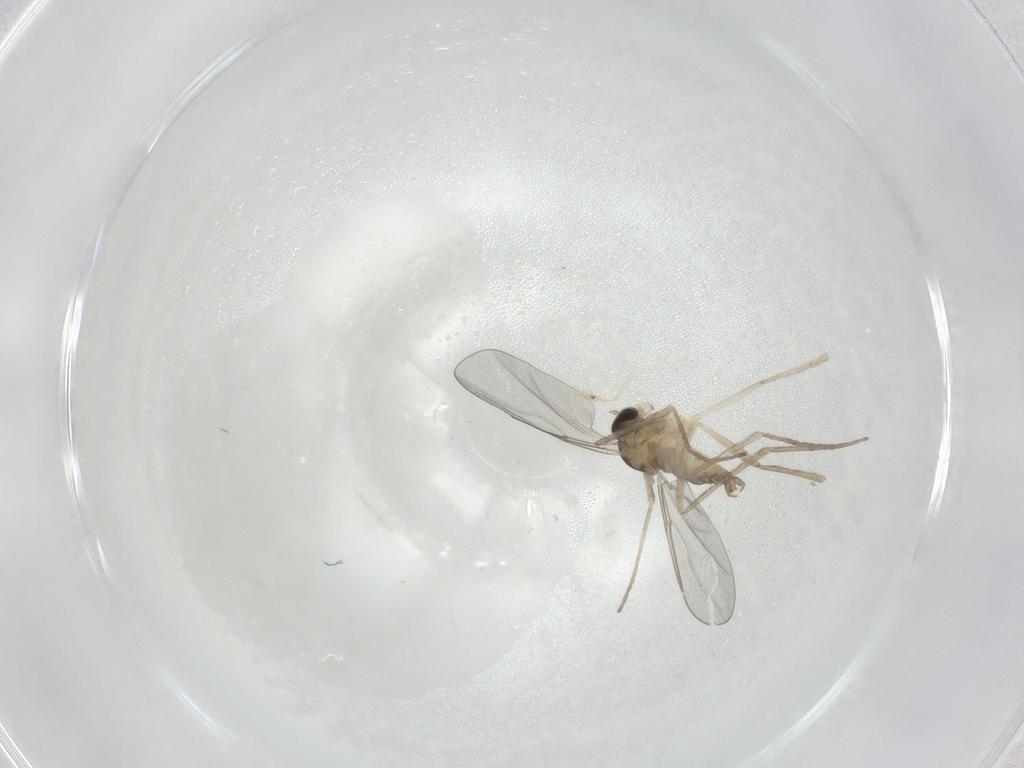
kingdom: Animalia
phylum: Arthropoda
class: Insecta
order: Diptera
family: Cecidomyiidae
